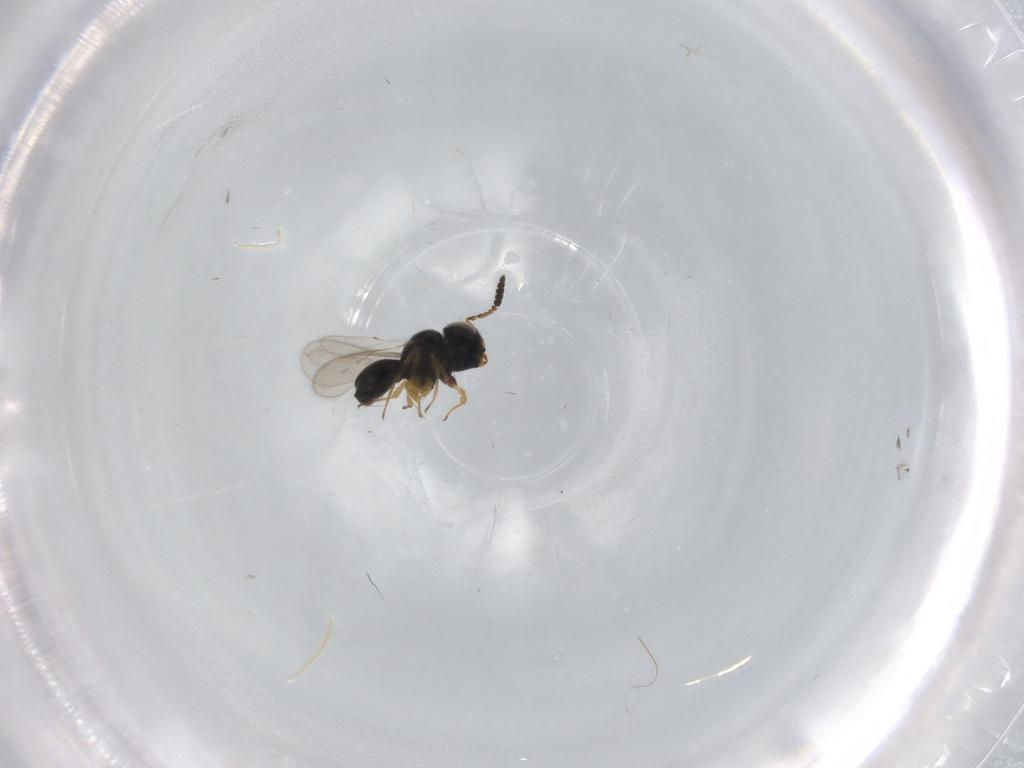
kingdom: Animalia
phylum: Arthropoda
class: Insecta
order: Hymenoptera
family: Scelionidae
